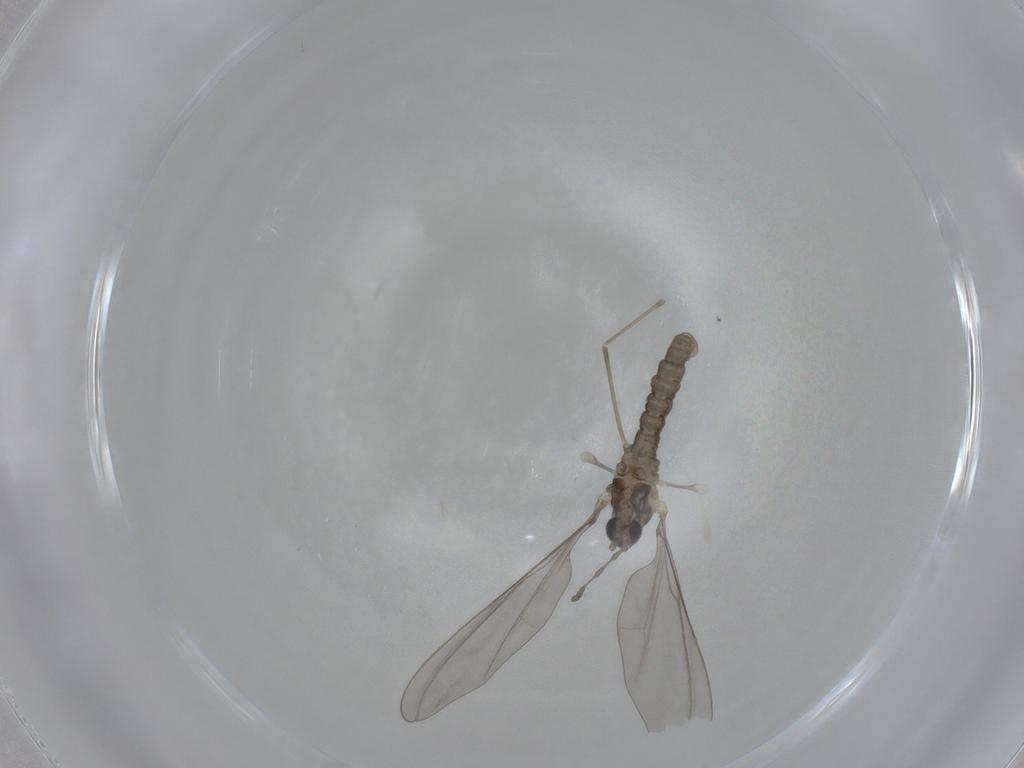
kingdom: Animalia
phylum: Arthropoda
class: Insecta
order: Diptera
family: Cecidomyiidae
